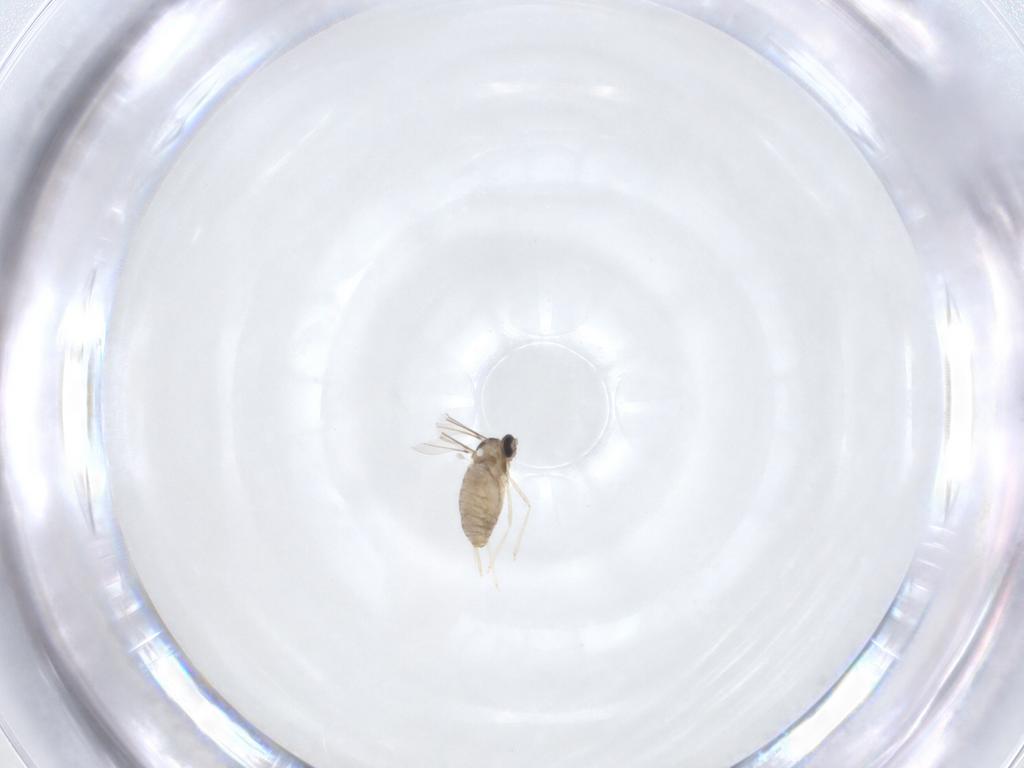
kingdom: Animalia
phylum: Arthropoda
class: Insecta
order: Diptera
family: Cecidomyiidae
